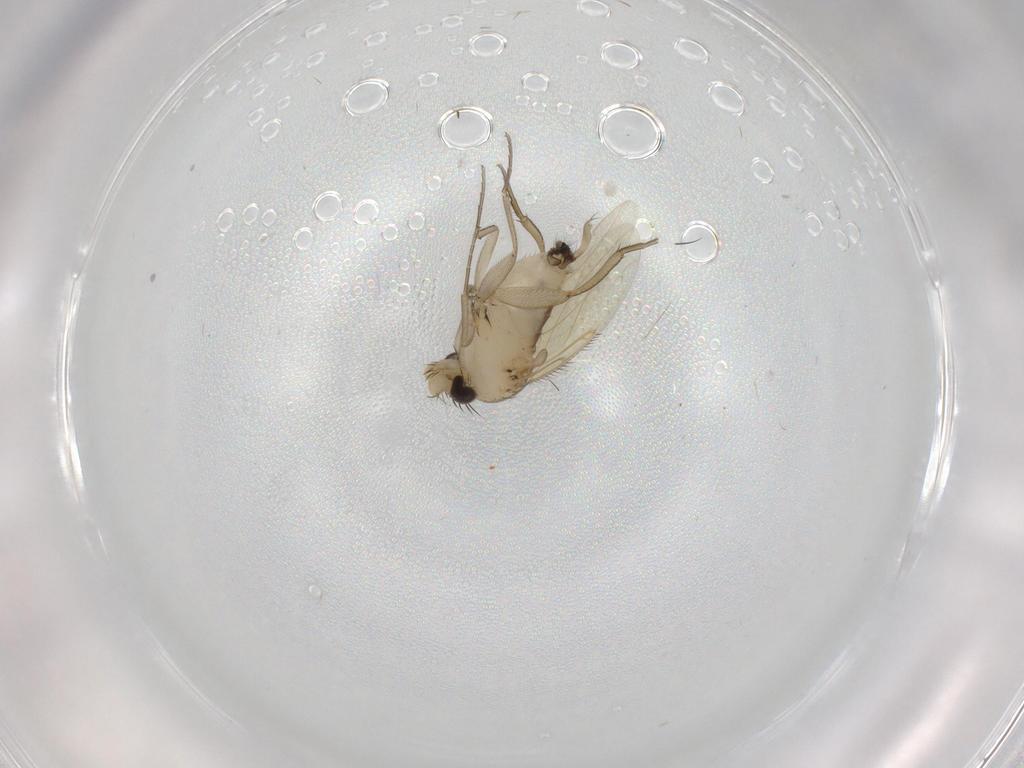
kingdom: Animalia
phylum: Arthropoda
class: Insecta
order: Diptera
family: Phoridae
